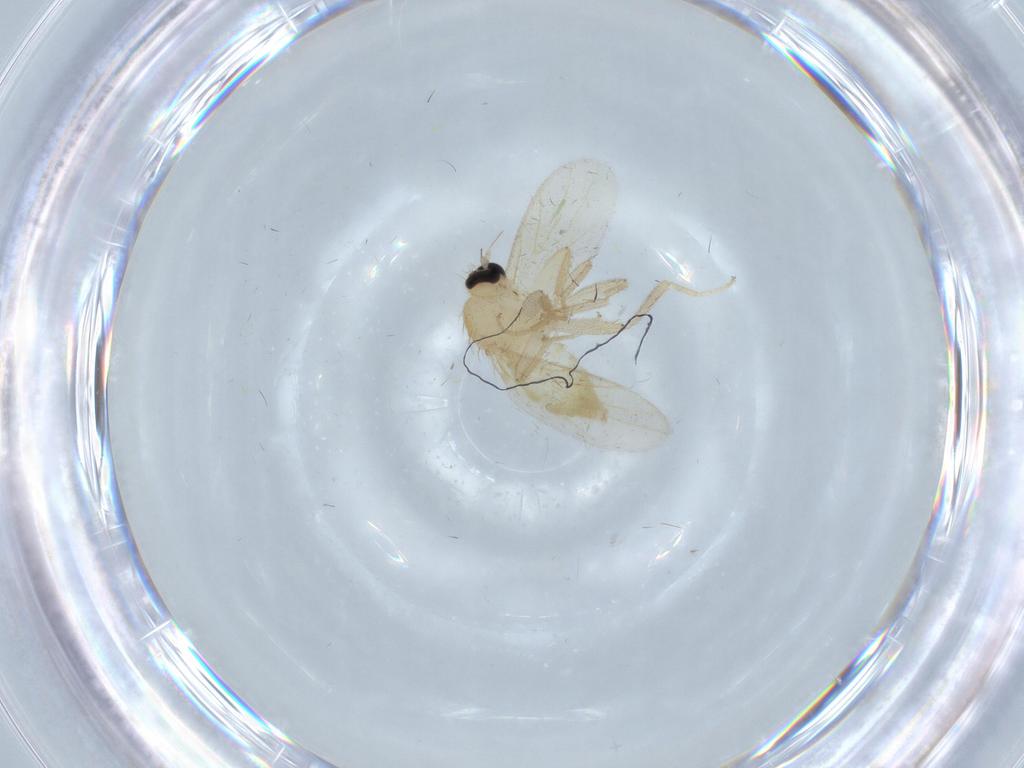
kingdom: Animalia
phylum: Arthropoda
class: Insecta
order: Diptera
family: Hybotidae
